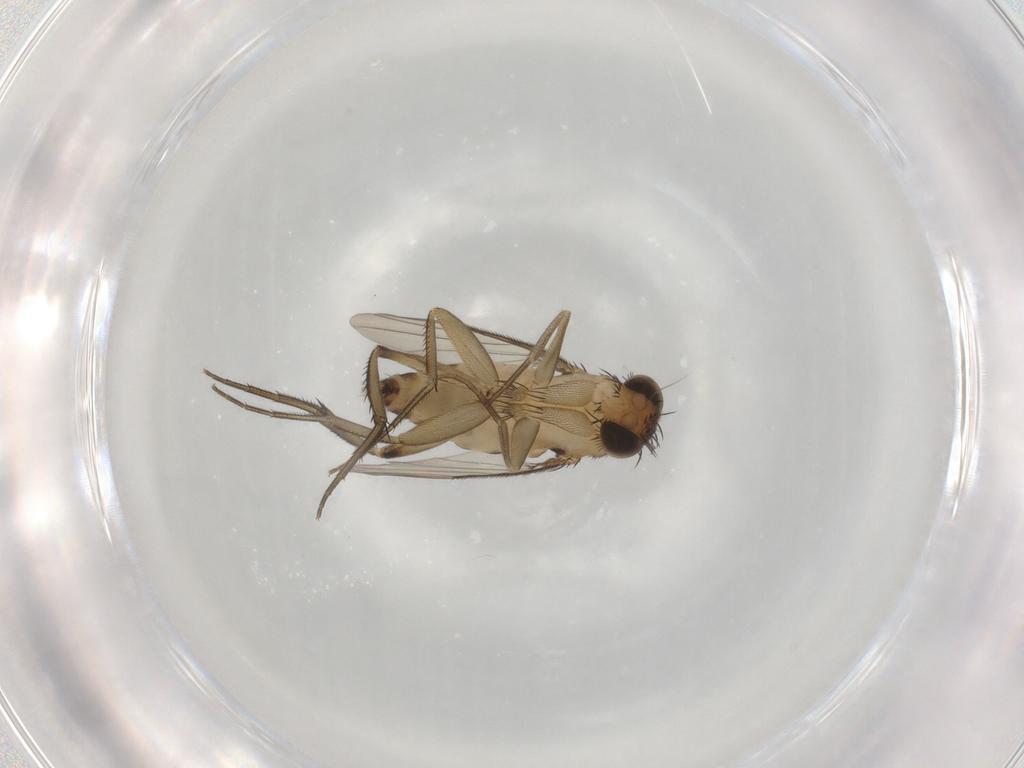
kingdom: Animalia
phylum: Arthropoda
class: Insecta
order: Diptera
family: Phoridae
